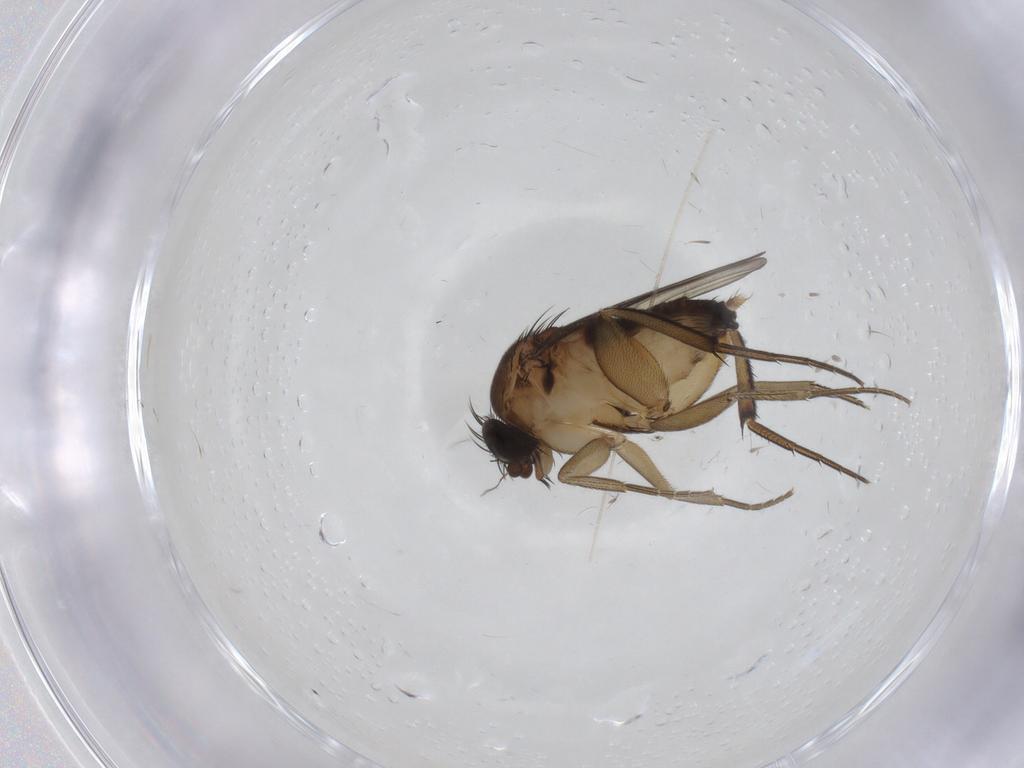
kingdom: Animalia
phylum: Arthropoda
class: Insecta
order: Diptera
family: Phoridae
